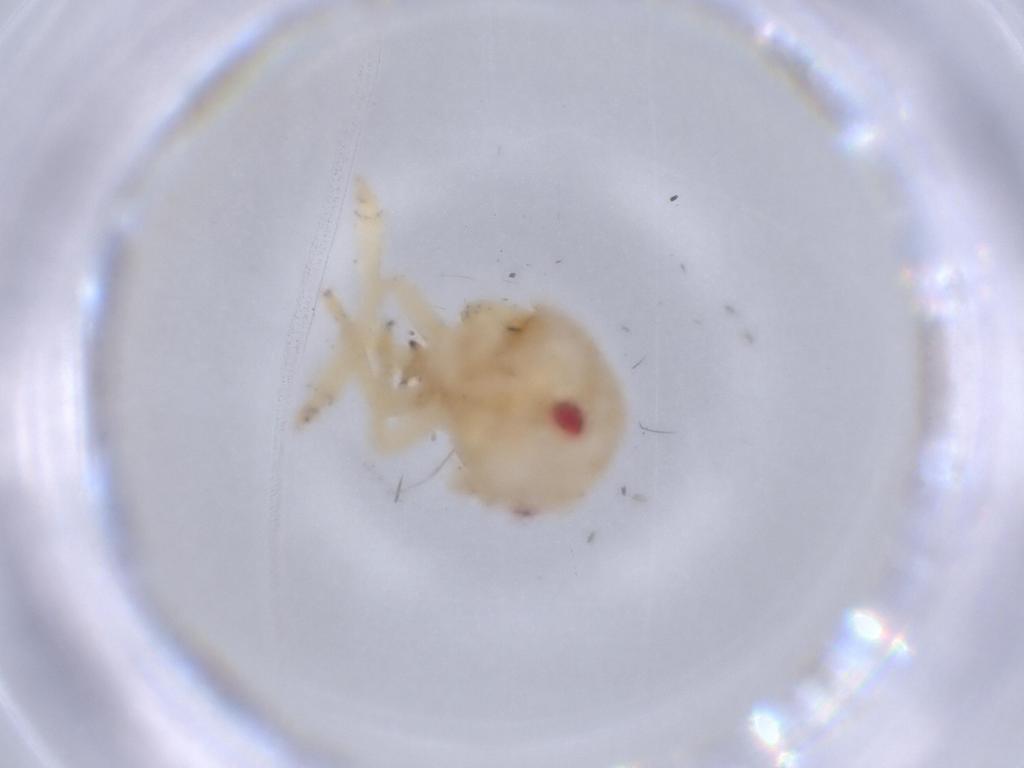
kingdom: Animalia
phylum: Arthropoda
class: Insecta
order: Hemiptera
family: Acanaloniidae
